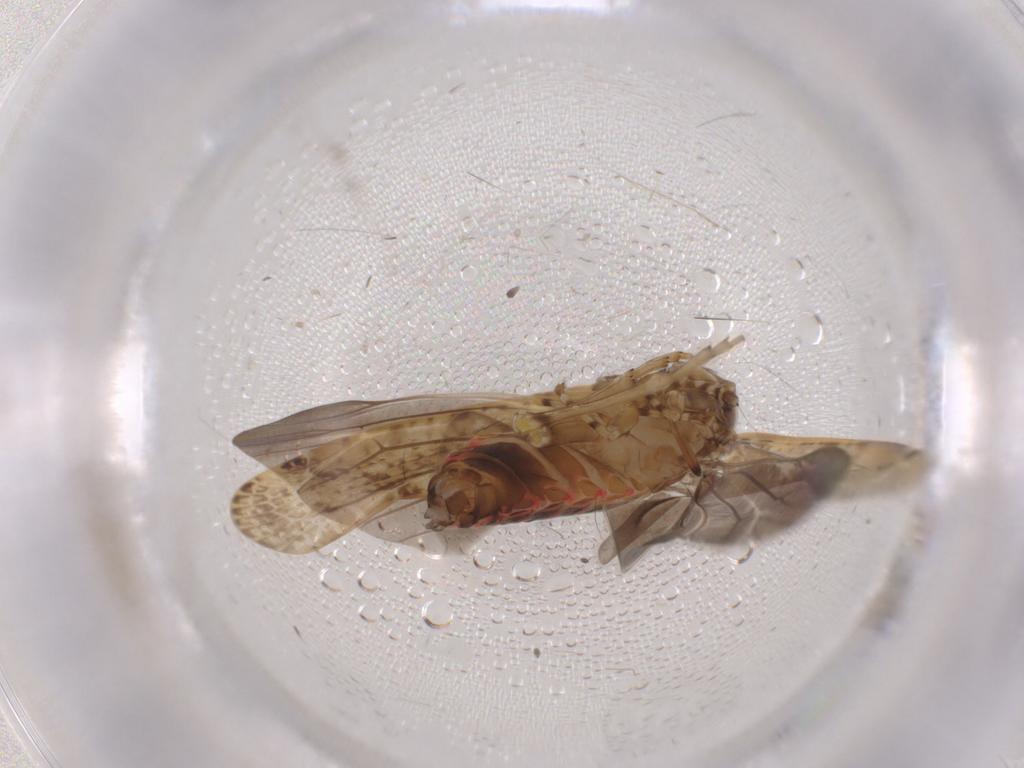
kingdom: Animalia
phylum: Arthropoda
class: Insecta
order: Lepidoptera
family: Blastobasidae
